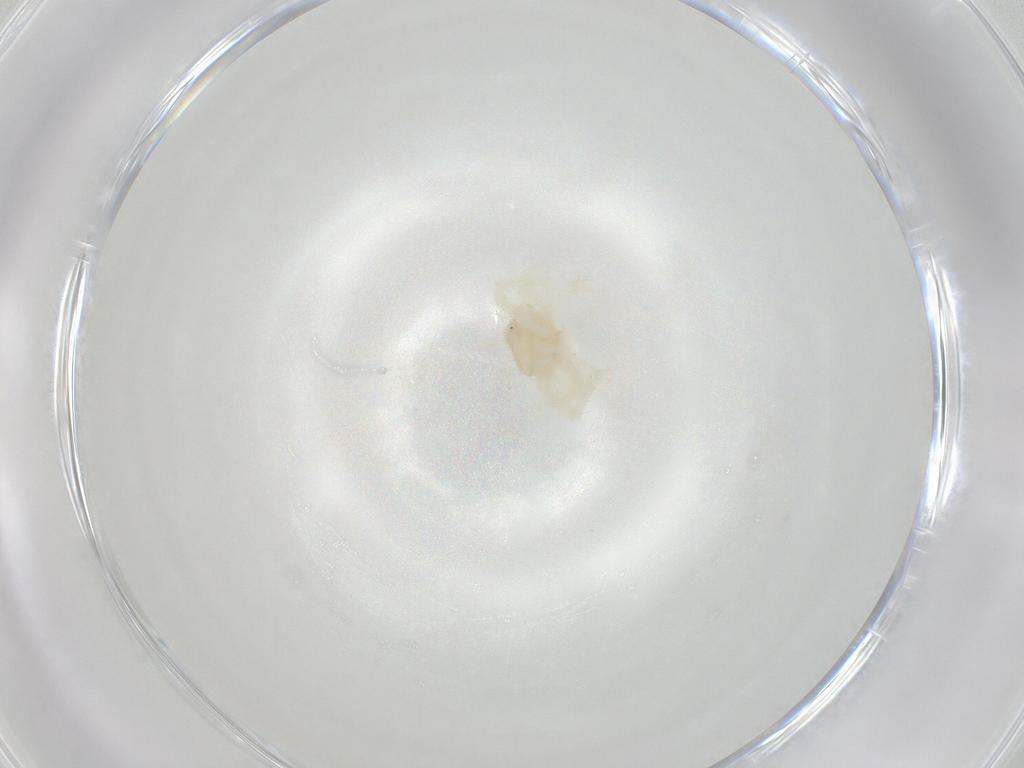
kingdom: Animalia
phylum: Arthropoda
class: Arachnida
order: Trombidiformes
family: Anystidae
